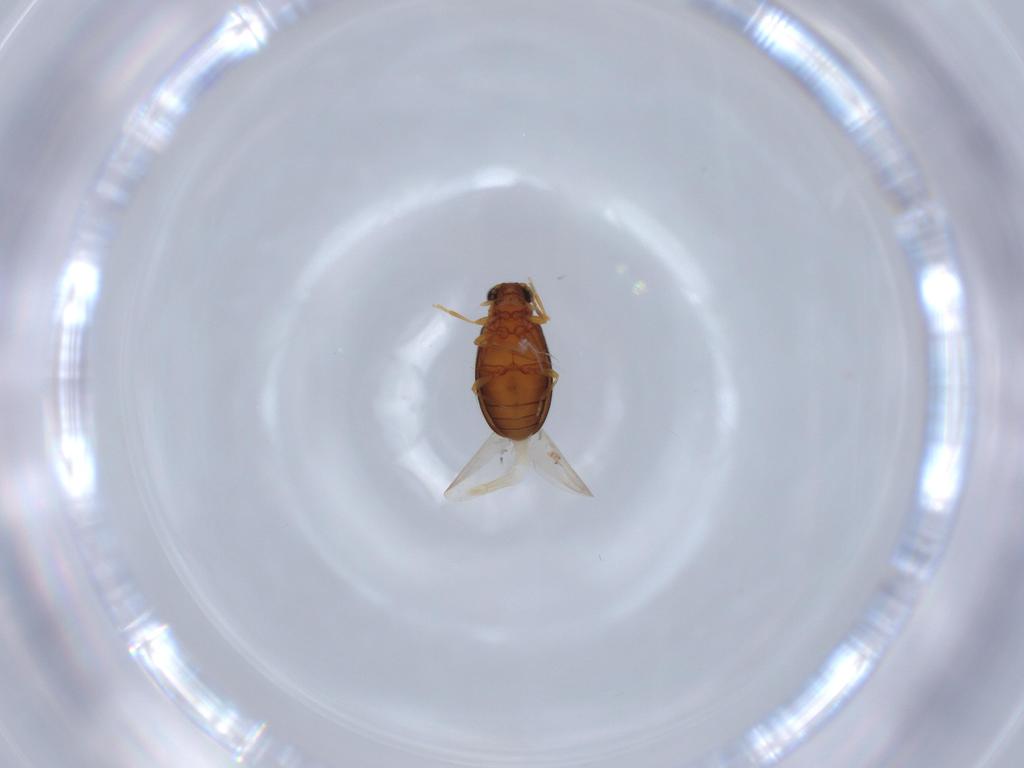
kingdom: Animalia
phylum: Arthropoda
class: Insecta
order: Coleoptera
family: Aderidae
